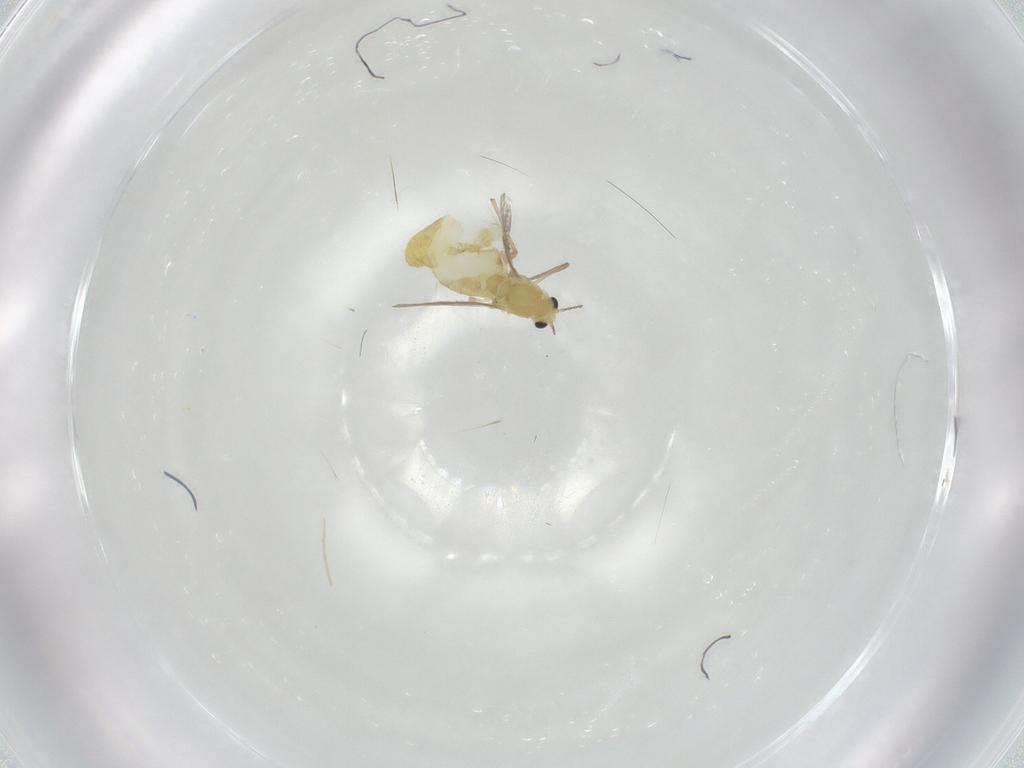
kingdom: Animalia
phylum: Arthropoda
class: Insecta
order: Diptera
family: Chironomidae
